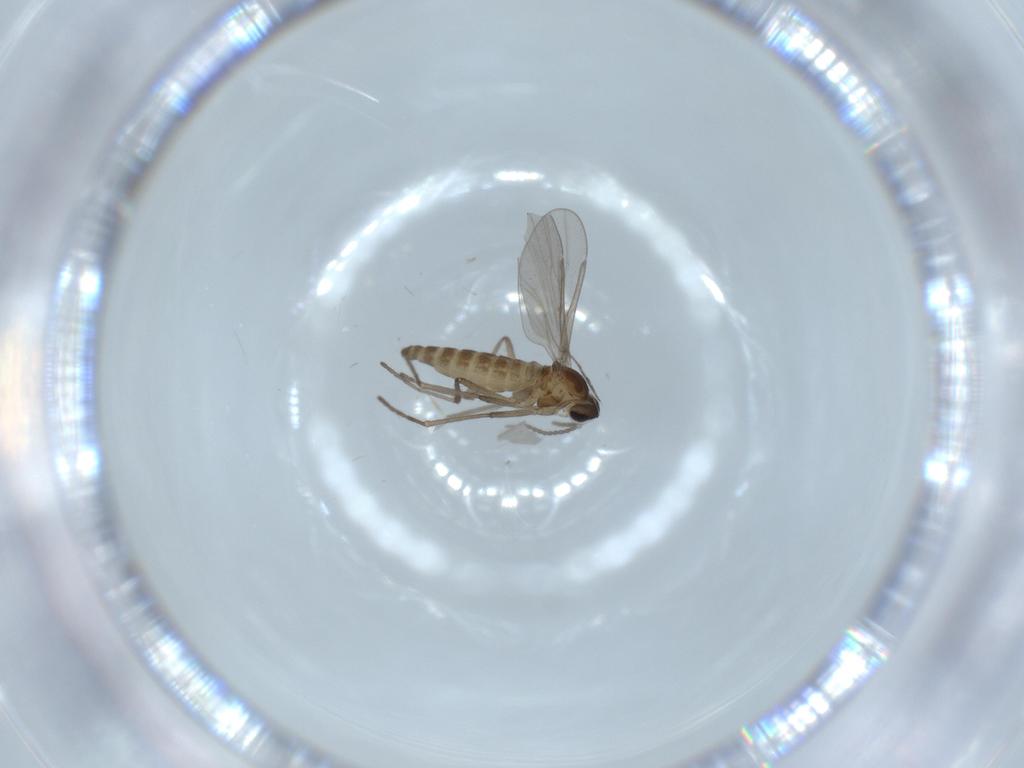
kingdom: Animalia
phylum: Arthropoda
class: Insecta
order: Diptera
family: Cecidomyiidae
